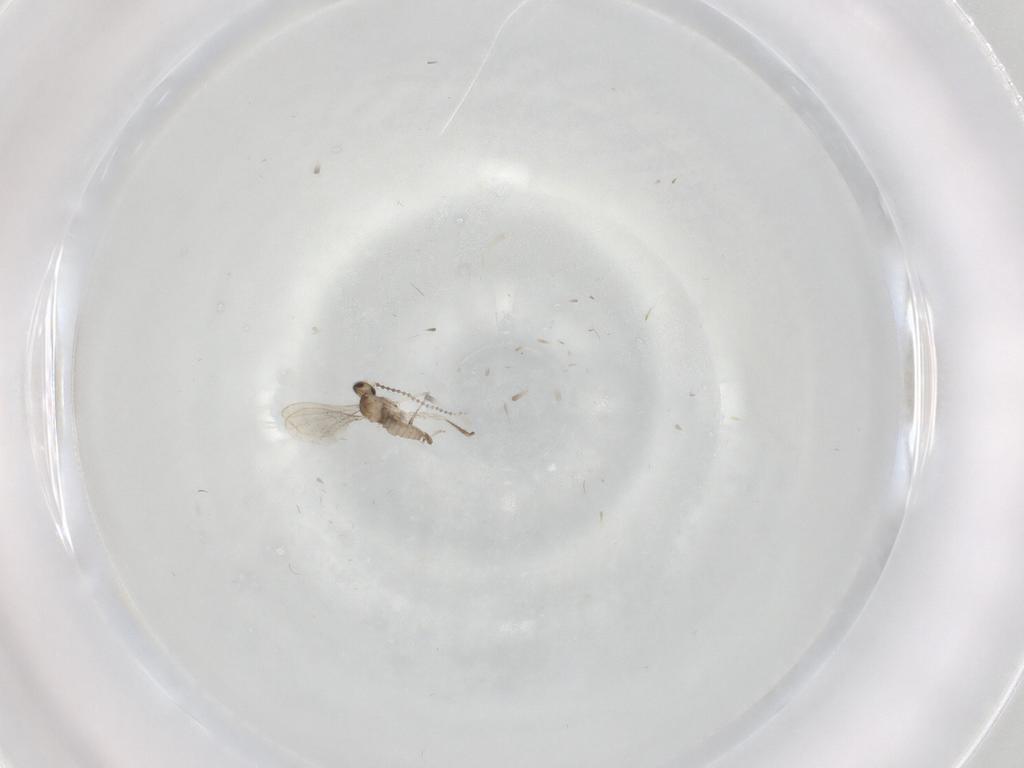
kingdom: Animalia
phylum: Arthropoda
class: Insecta
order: Diptera
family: Cecidomyiidae
